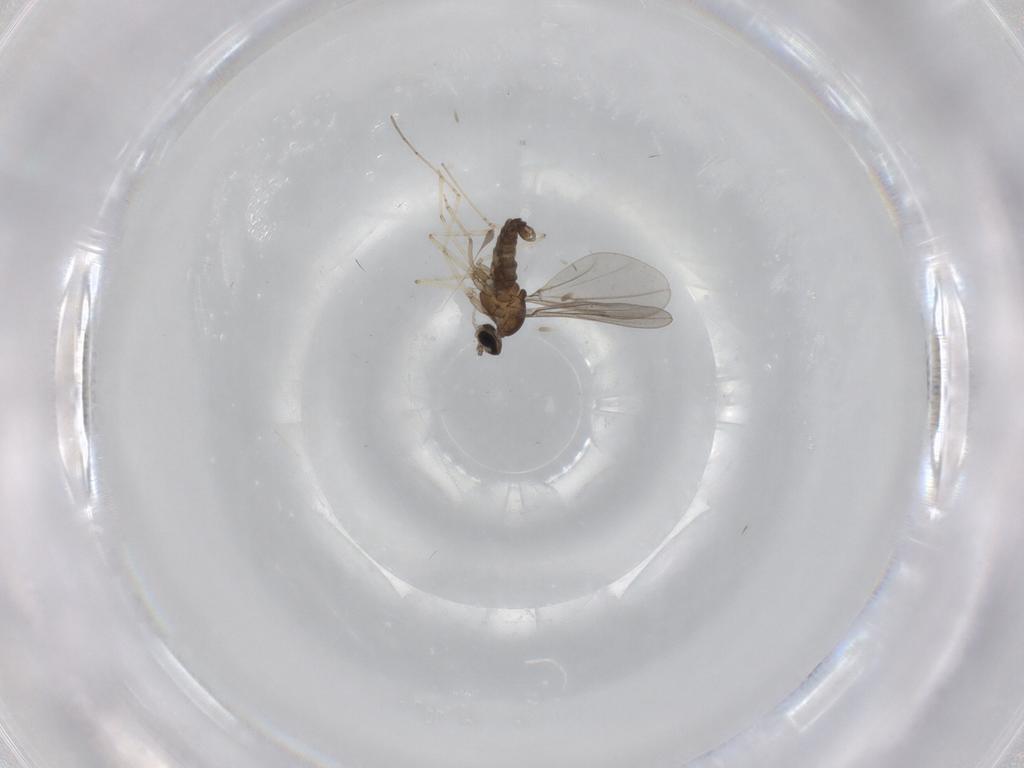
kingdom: Animalia
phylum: Arthropoda
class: Insecta
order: Diptera
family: Cecidomyiidae
